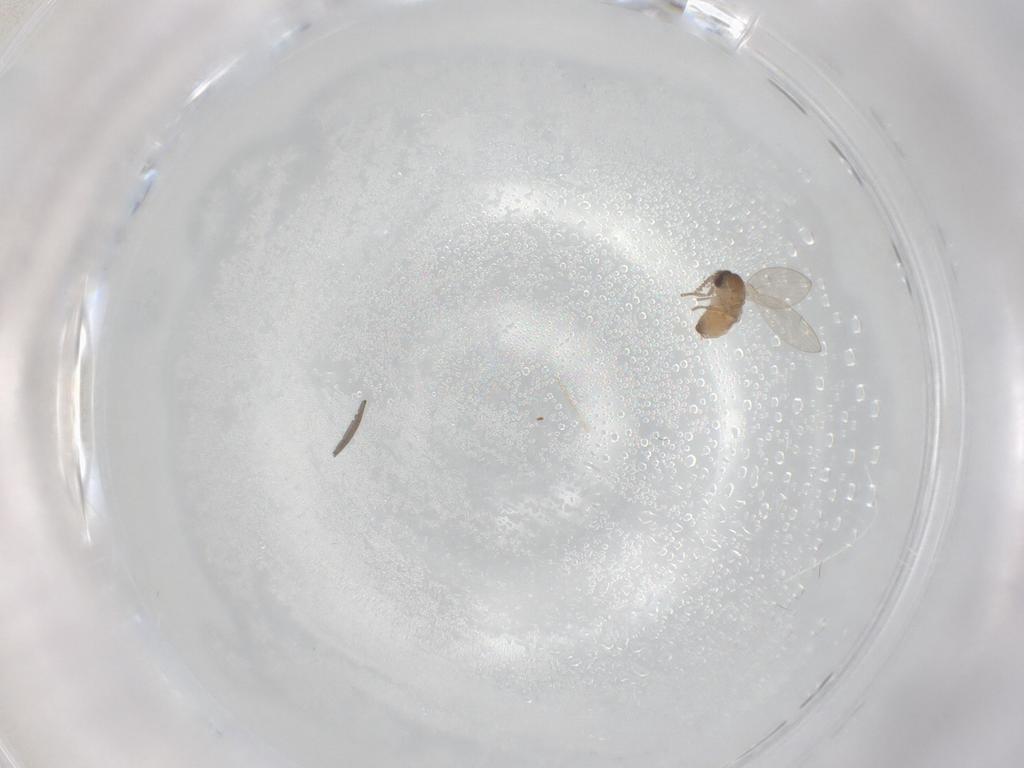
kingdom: Animalia
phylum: Arthropoda
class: Insecta
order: Diptera
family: Psychodidae
